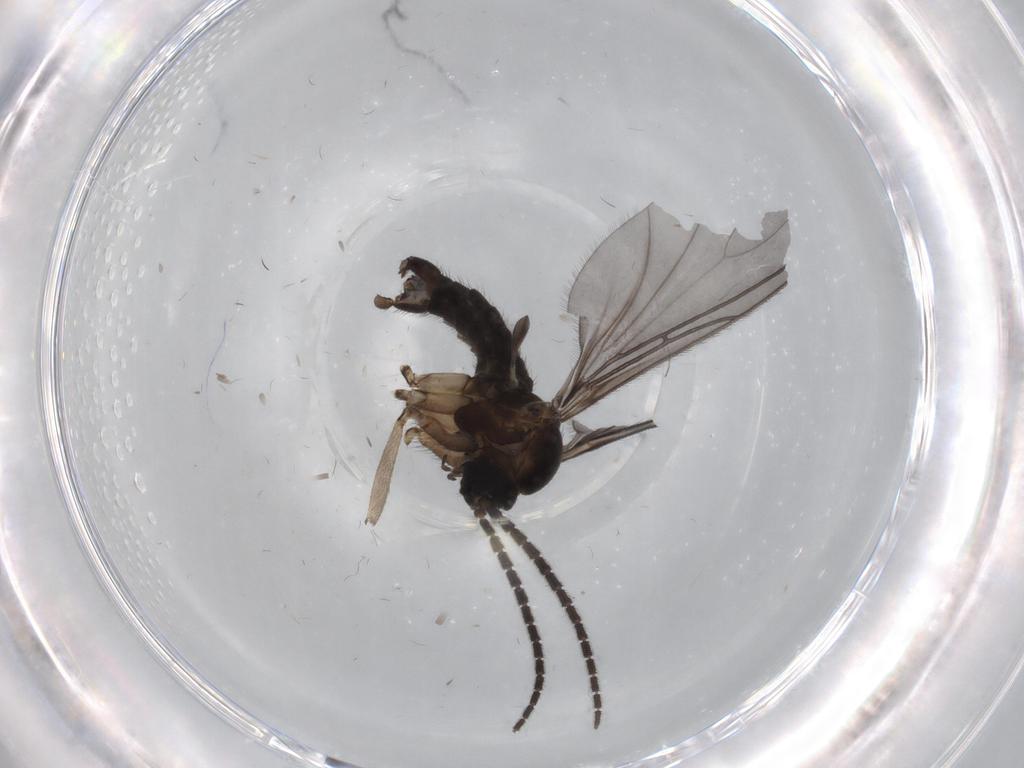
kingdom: Animalia
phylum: Arthropoda
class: Insecta
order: Diptera
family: Sciaridae
